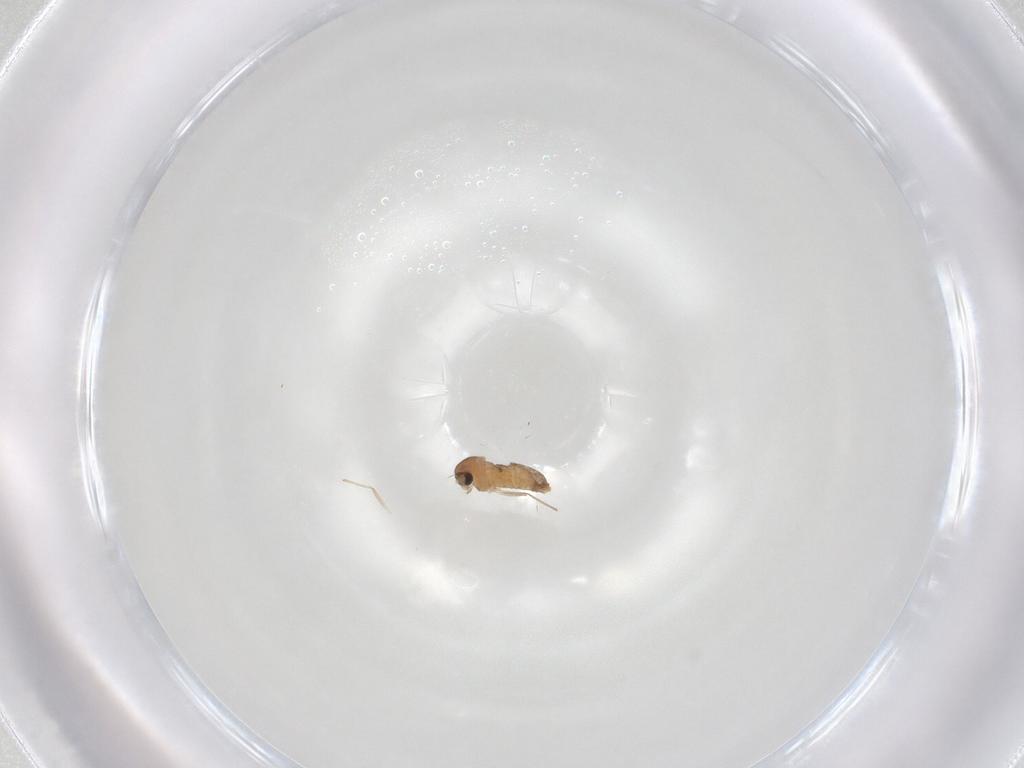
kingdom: Animalia
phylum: Arthropoda
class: Insecta
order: Diptera
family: Chironomidae
